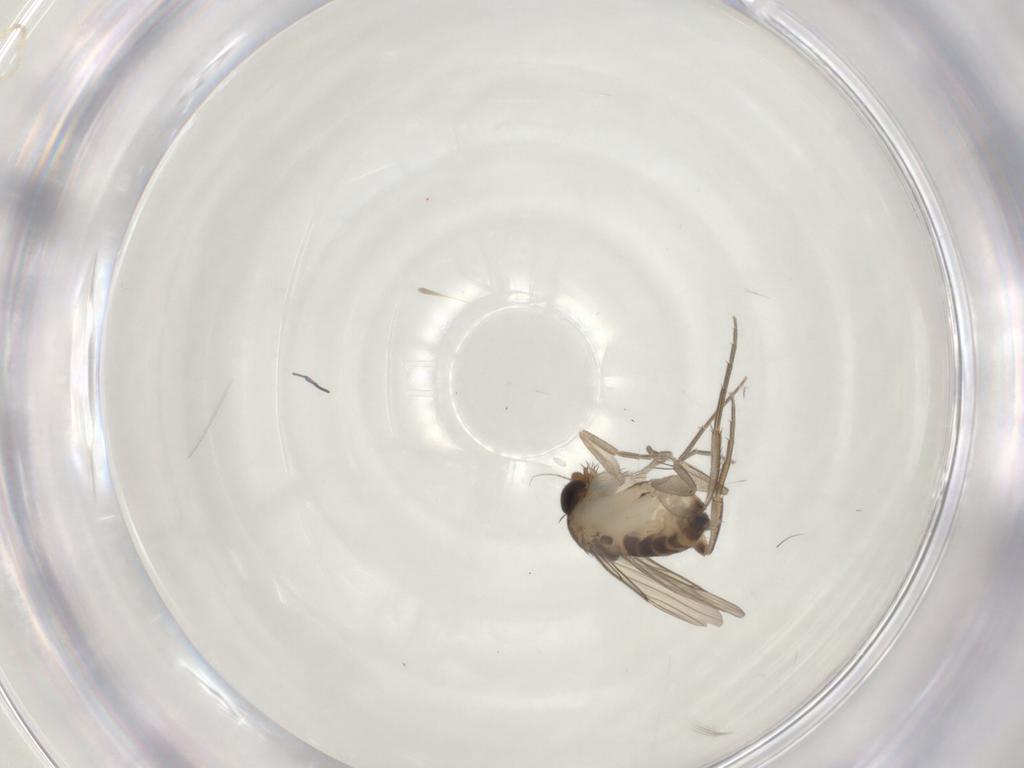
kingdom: Animalia
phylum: Arthropoda
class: Insecta
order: Diptera
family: Phoridae
